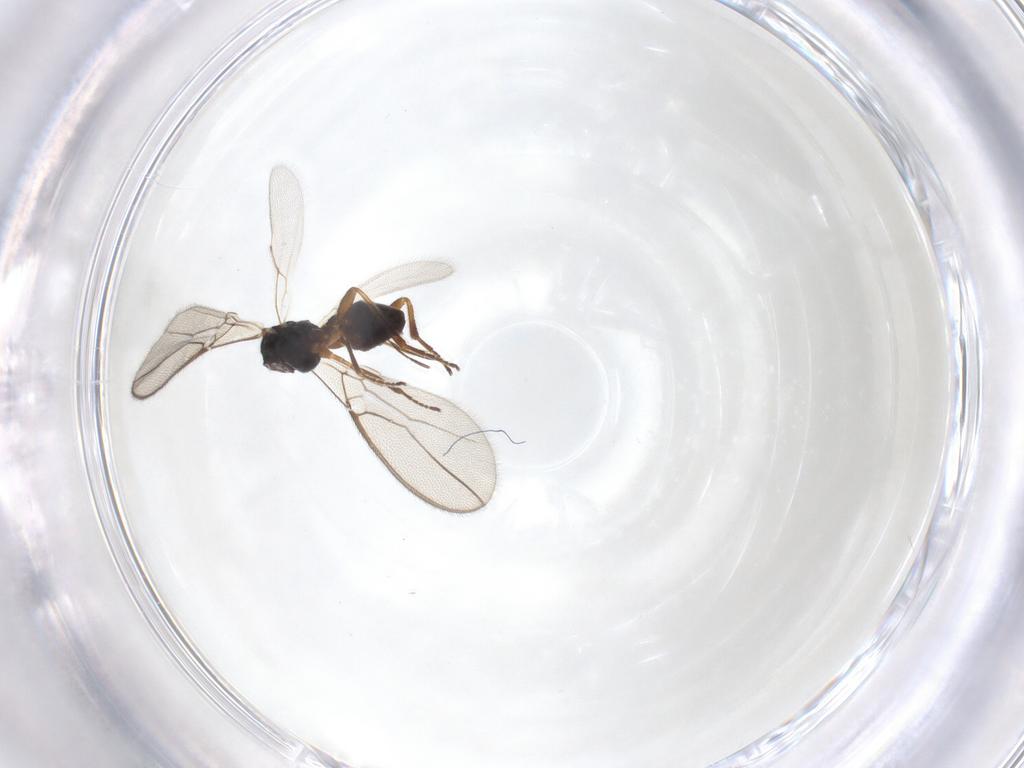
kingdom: Animalia
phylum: Arthropoda
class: Insecta
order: Hymenoptera
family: Braconidae
